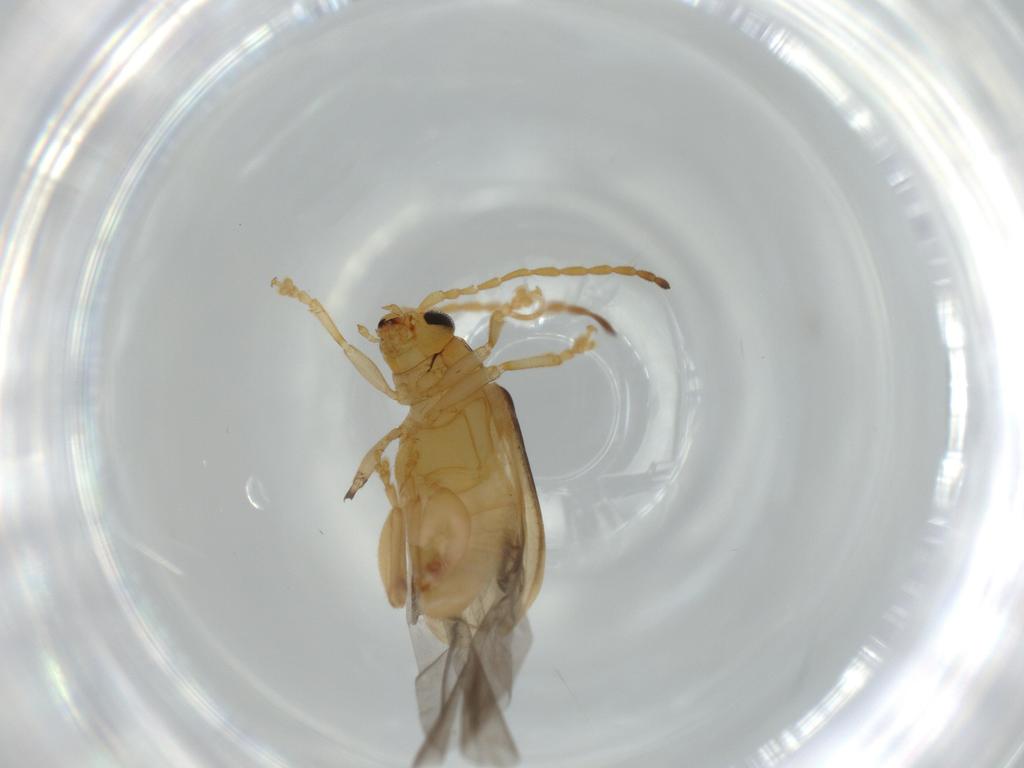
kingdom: Animalia
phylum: Arthropoda
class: Insecta
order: Coleoptera
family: Chrysomelidae
